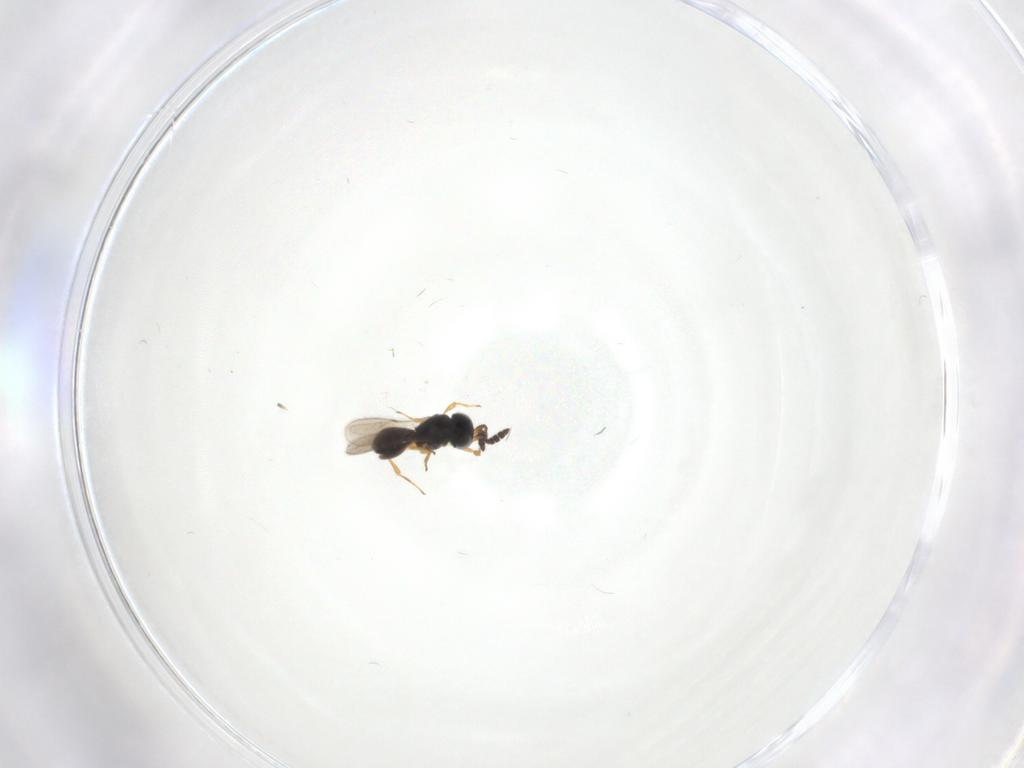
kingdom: Animalia
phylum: Arthropoda
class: Insecta
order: Hymenoptera
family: Scelionidae
